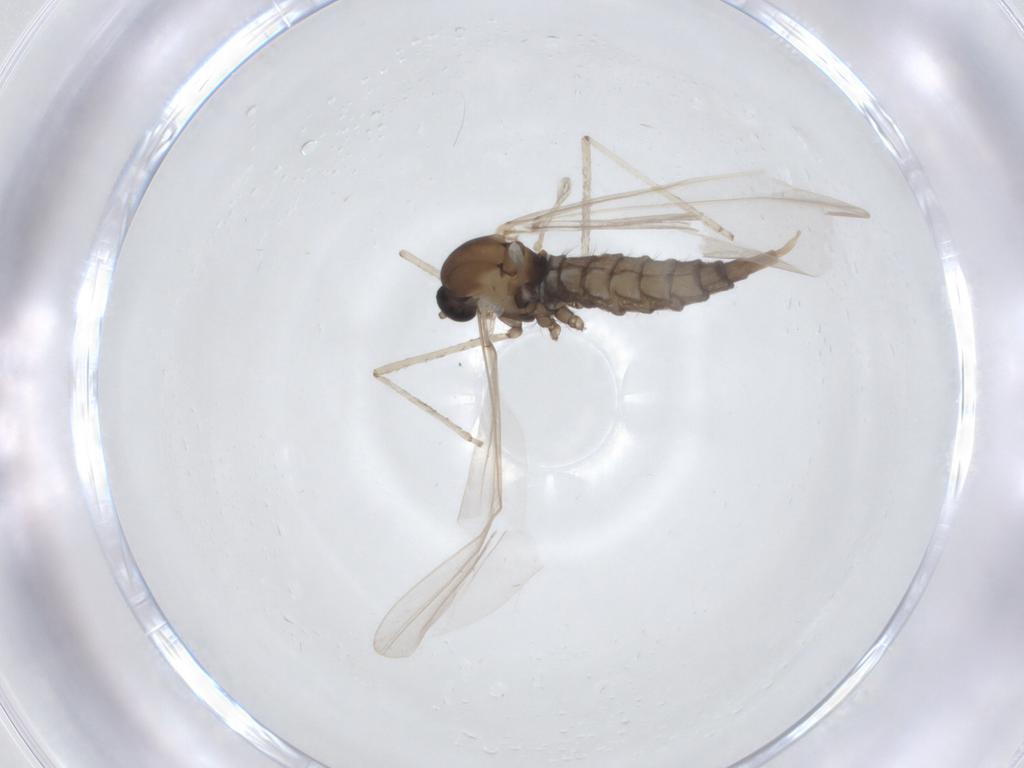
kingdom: Animalia
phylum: Arthropoda
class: Insecta
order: Diptera
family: Cecidomyiidae
